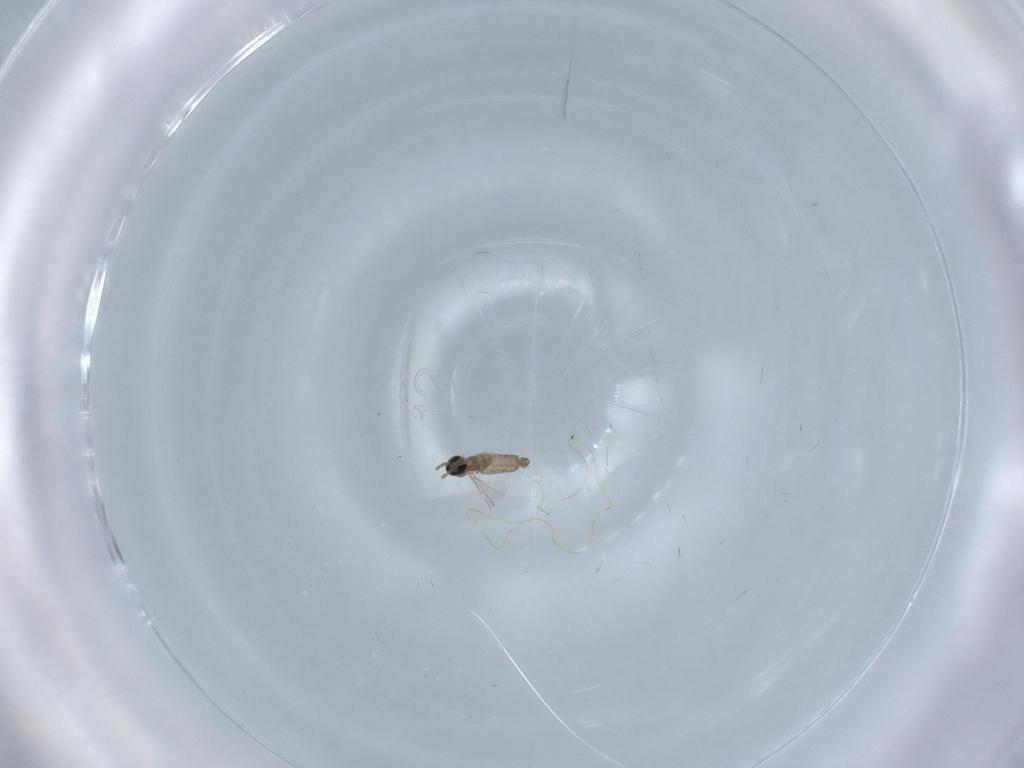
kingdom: Animalia
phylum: Arthropoda
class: Insecta
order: Diptera
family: Cecidomyiidae
